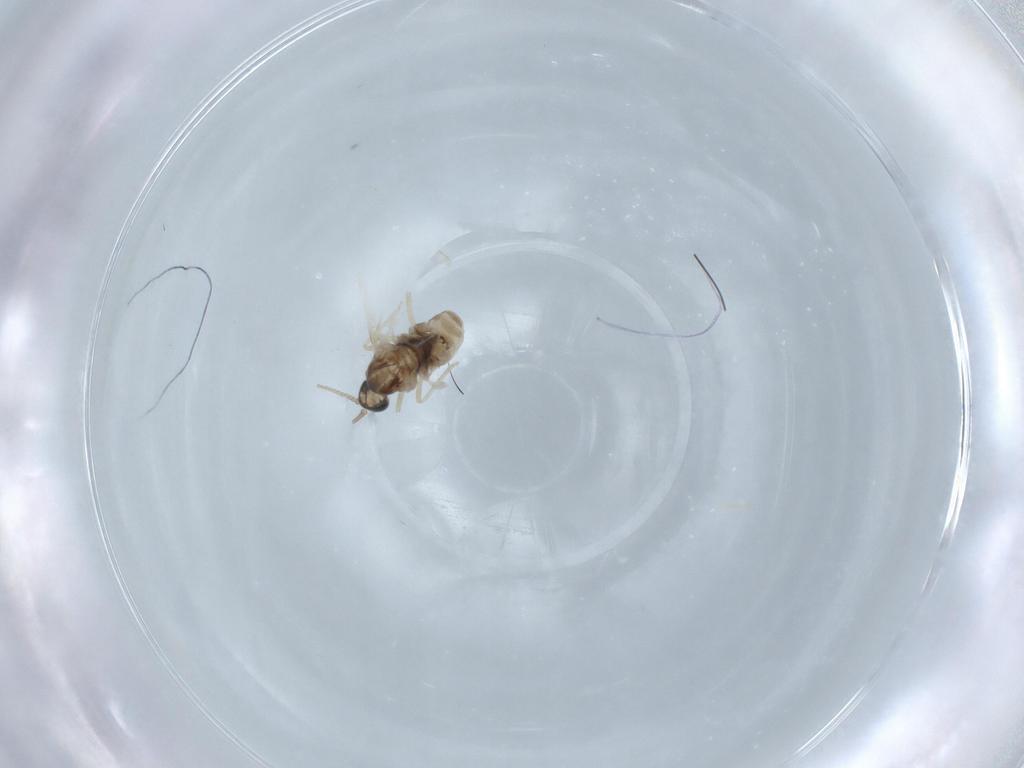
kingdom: Animalia
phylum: Arthropoda
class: Insecta
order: Diptera
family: Cecidomyiidae
